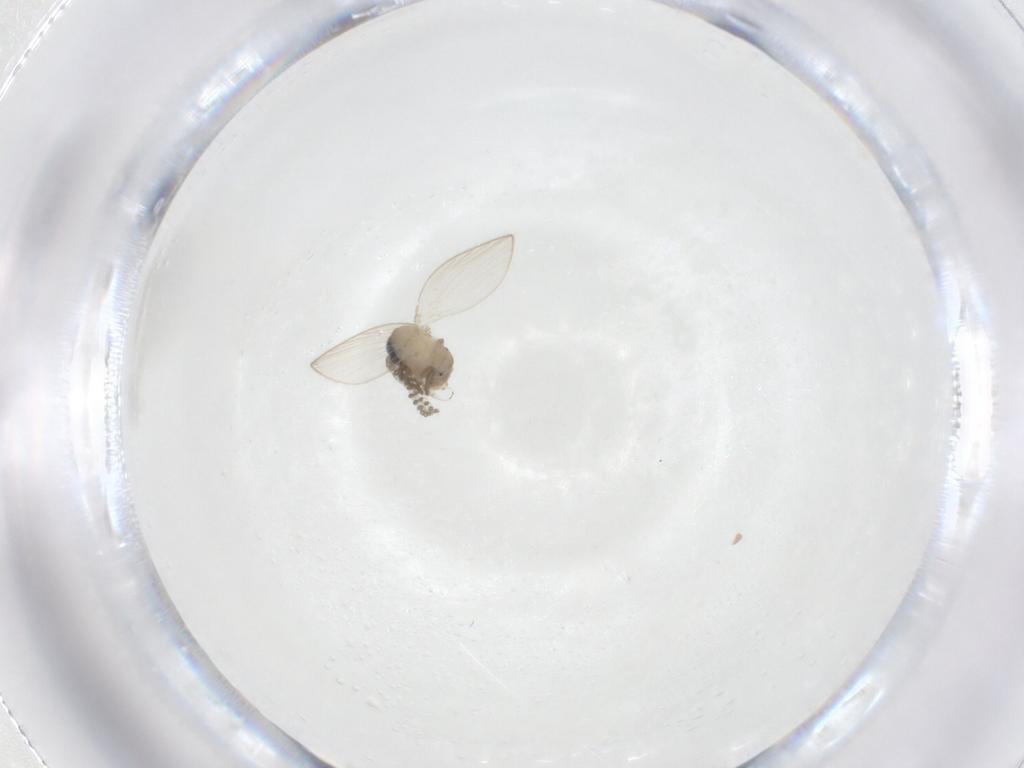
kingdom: Animalia
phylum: Arthropoda
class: Insecta
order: Diptera
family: Psychodidae
